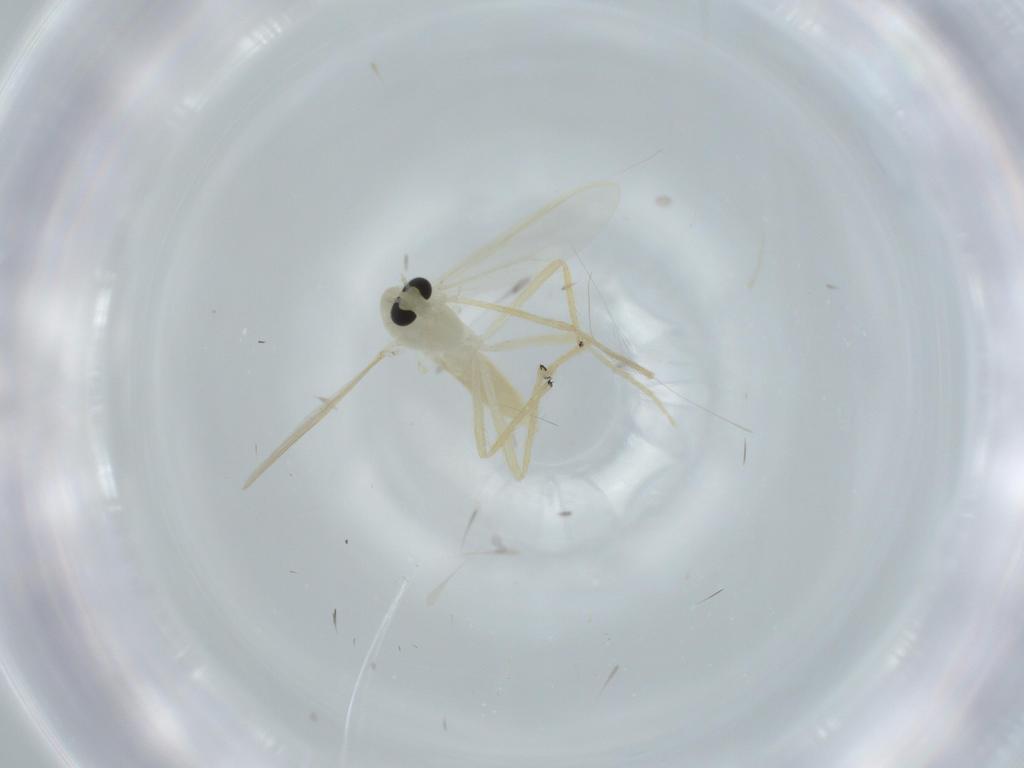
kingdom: Animalia
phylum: Arthropoda
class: Insecta
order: Diptera
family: Chironomidae
